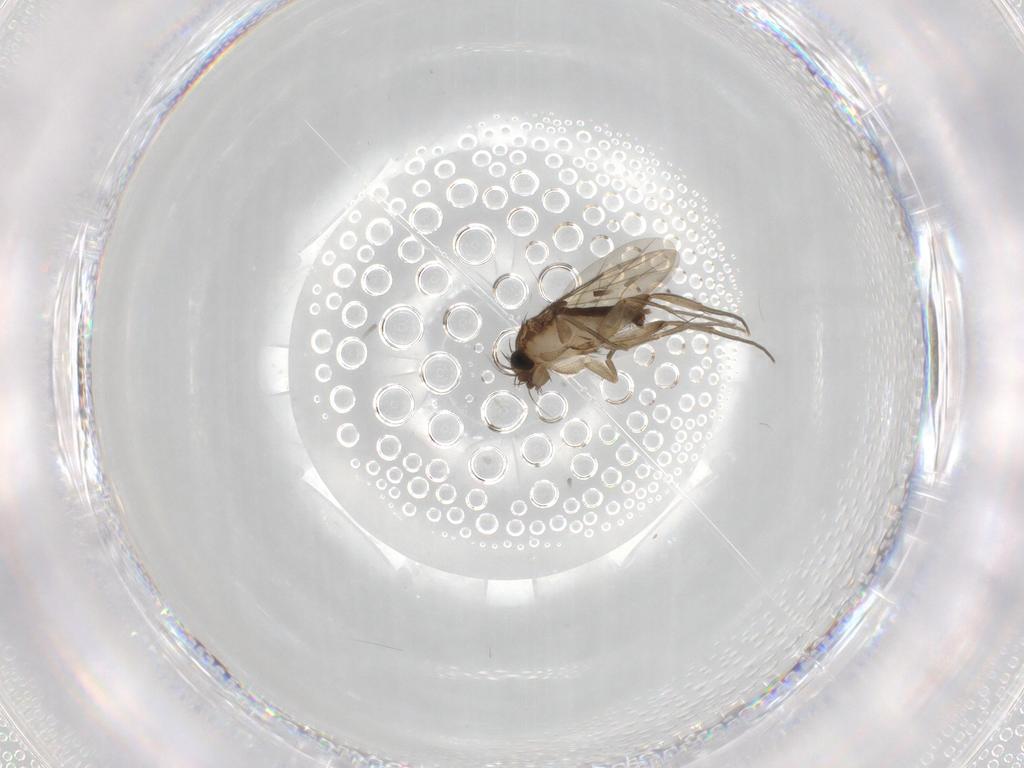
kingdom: Animalia
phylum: Arthropoda
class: Insecta
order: Diptera
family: Phoridae
